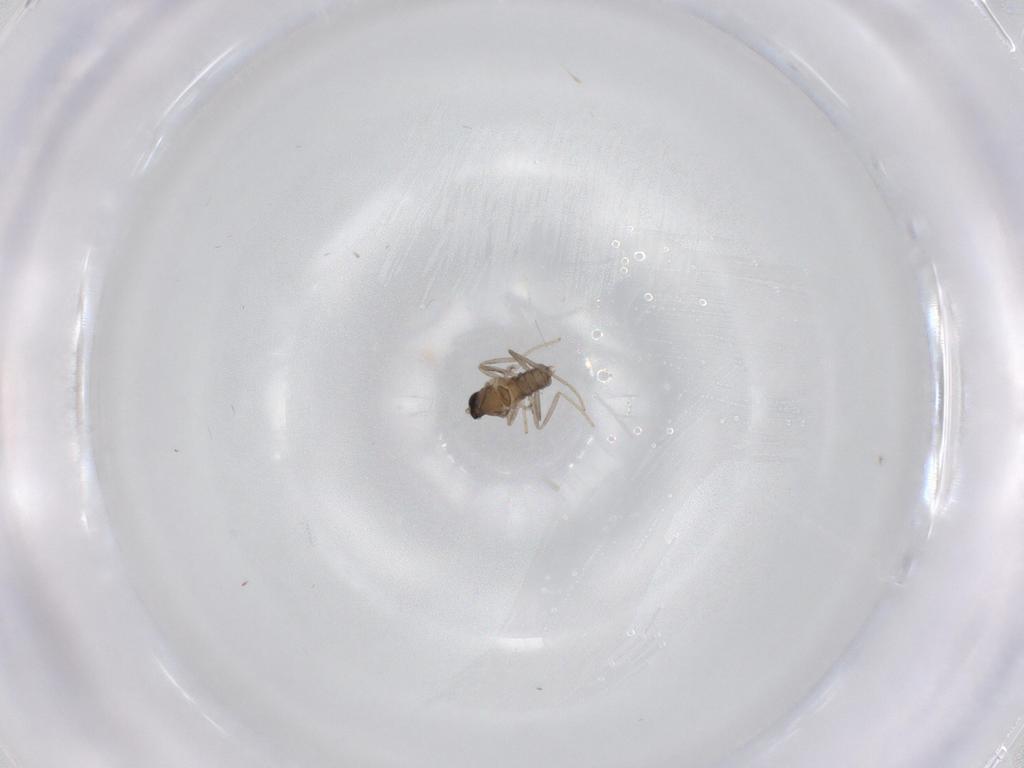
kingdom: Animalia
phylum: Arthropoda
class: Insecta
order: Diptera
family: Cecidomyiidae
